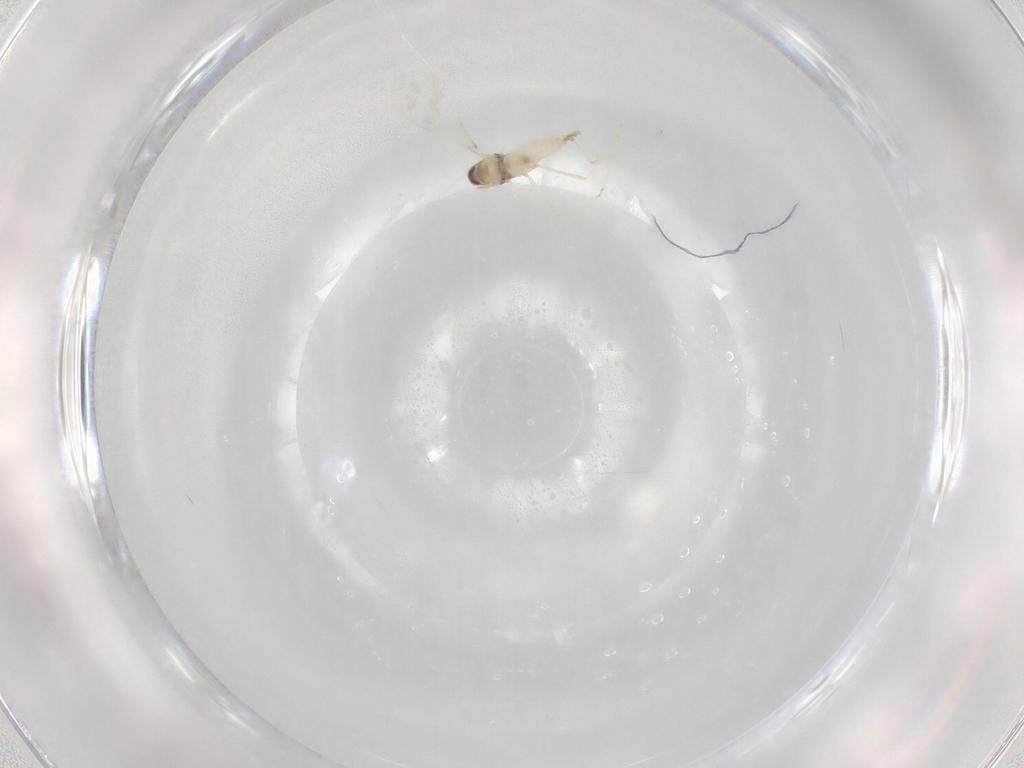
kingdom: Animalia
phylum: Arthropoda
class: Insecta
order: Diptera
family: Cecidomyiidae
